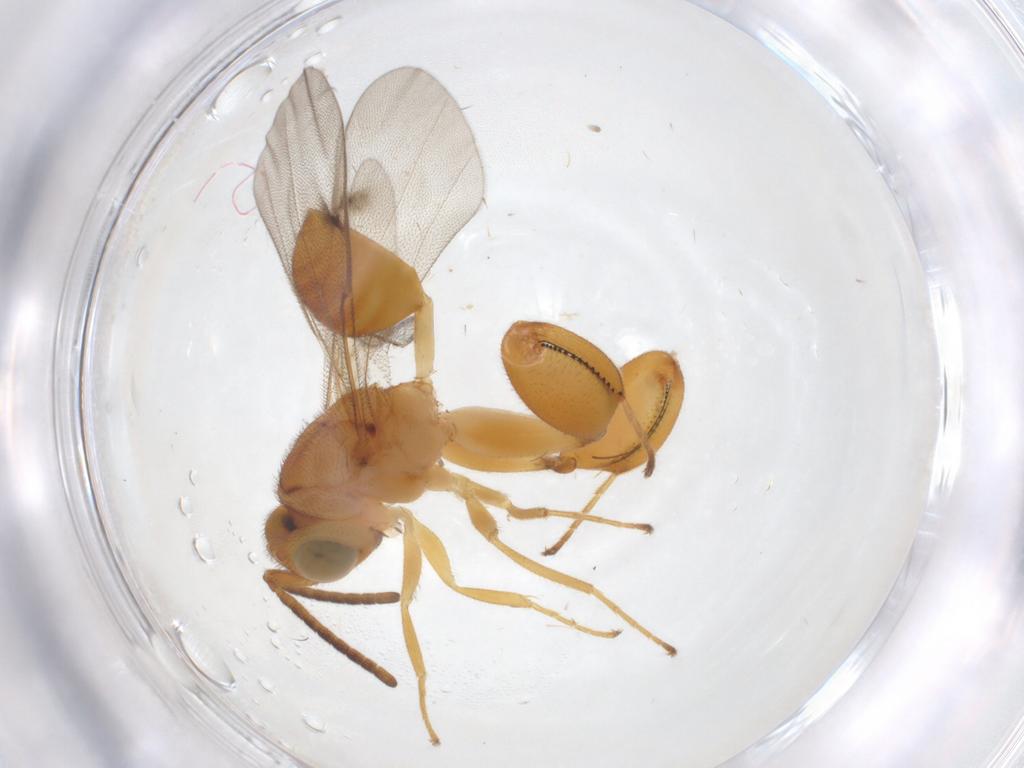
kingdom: Animalia
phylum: Arthropoda
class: Insecta
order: Hymenoptera
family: Chalcididae
